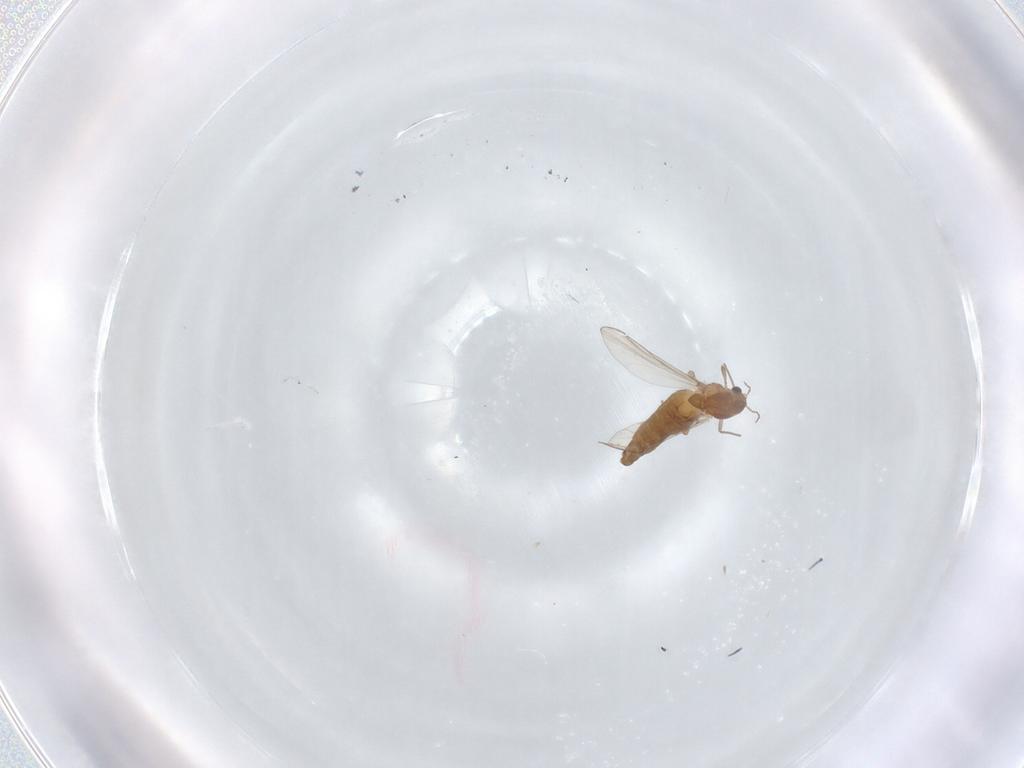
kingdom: Animalia
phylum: Arthropoda
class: Insecta
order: Diptera
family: Chironomidae
